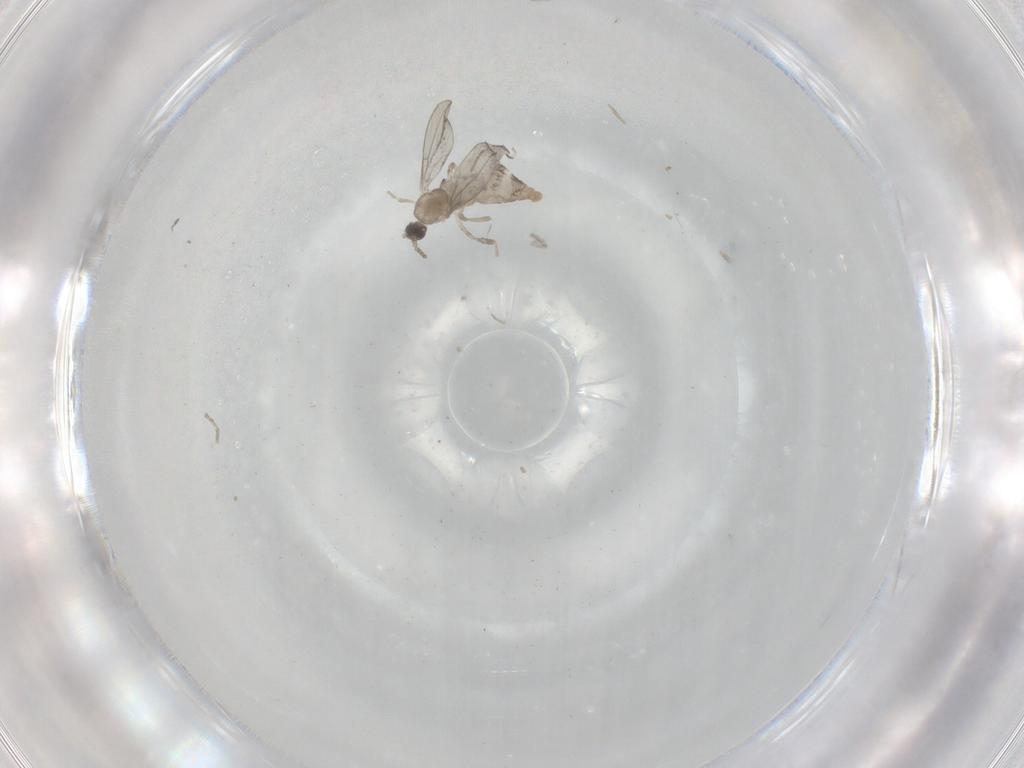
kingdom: Animalia
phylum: Arthropoda
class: Insecta
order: Diptera
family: Cecidomyiidae
